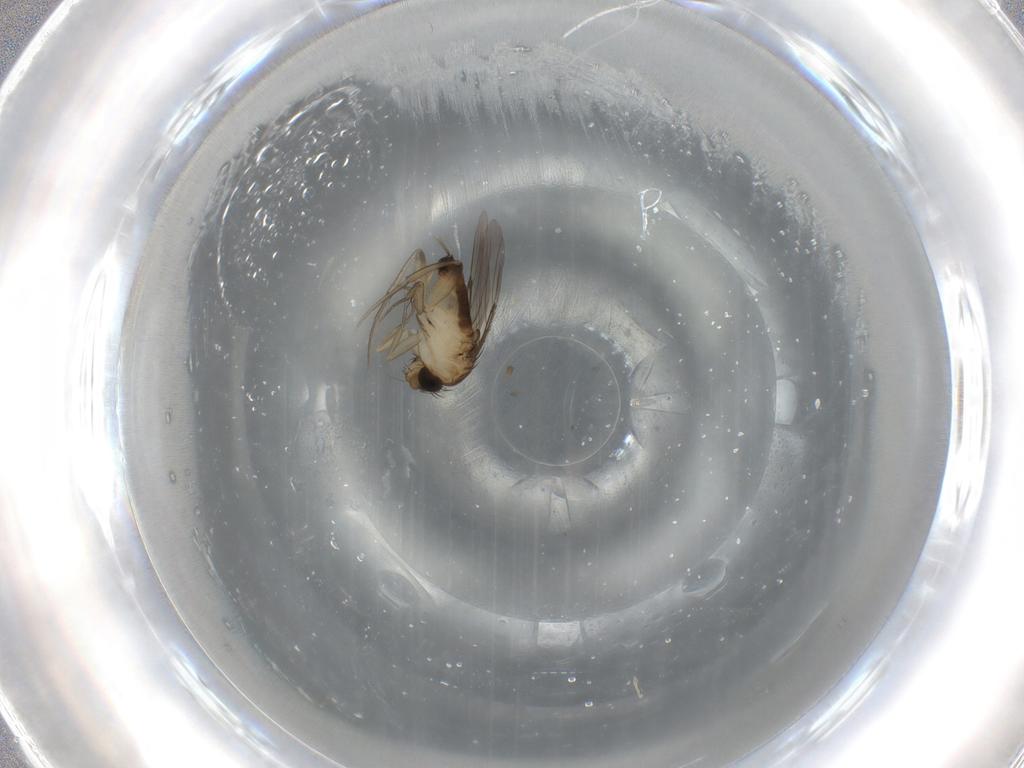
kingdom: Animalia
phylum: Arthropoda
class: Insecta
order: Diptera
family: Phoridae
